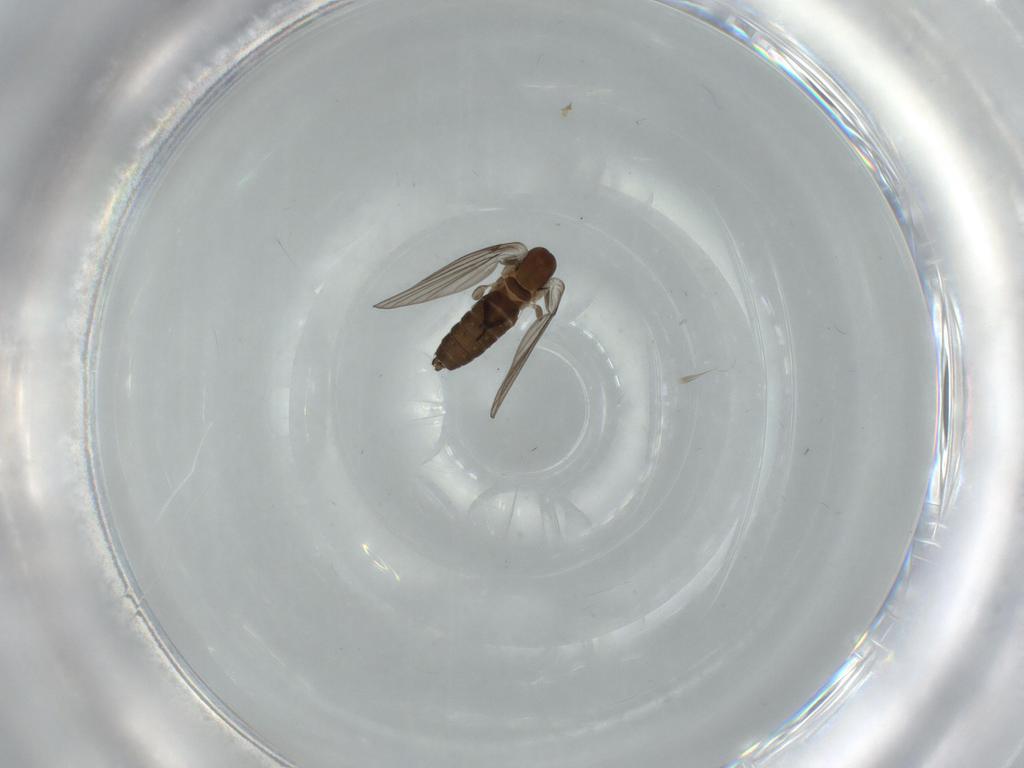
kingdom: Animalia
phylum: Arthropoda
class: Insecta
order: Diptera
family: Psychodidae
